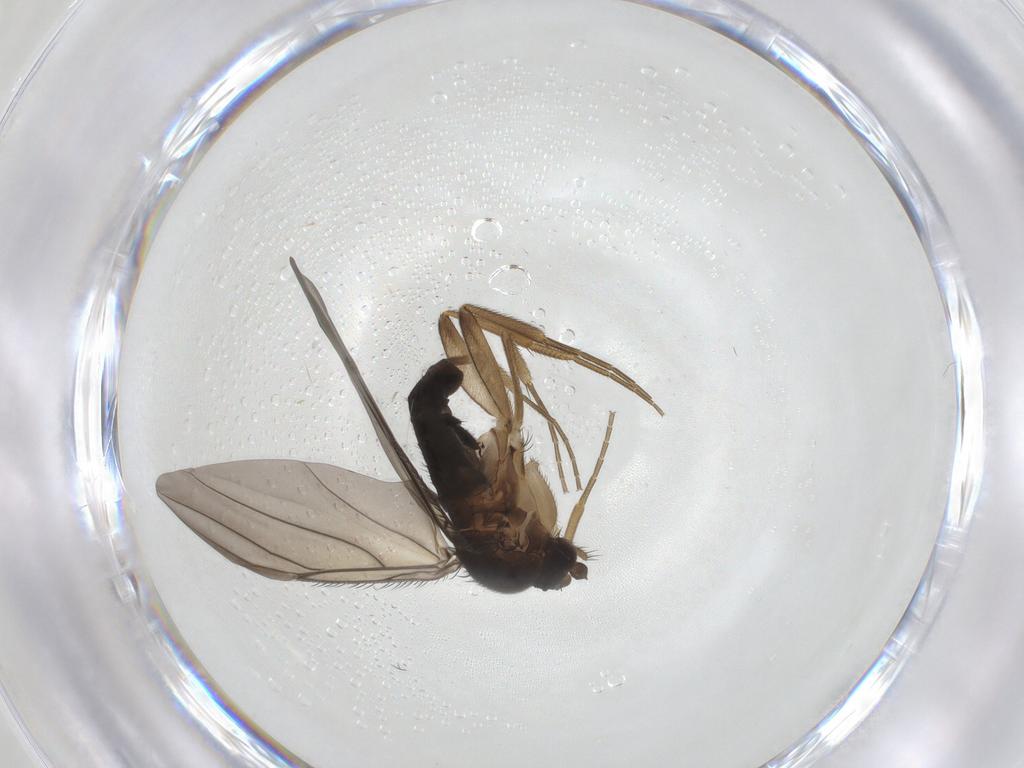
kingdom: Animalia
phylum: Arthropoda
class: Insecta
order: Diptera
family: Phoridae
